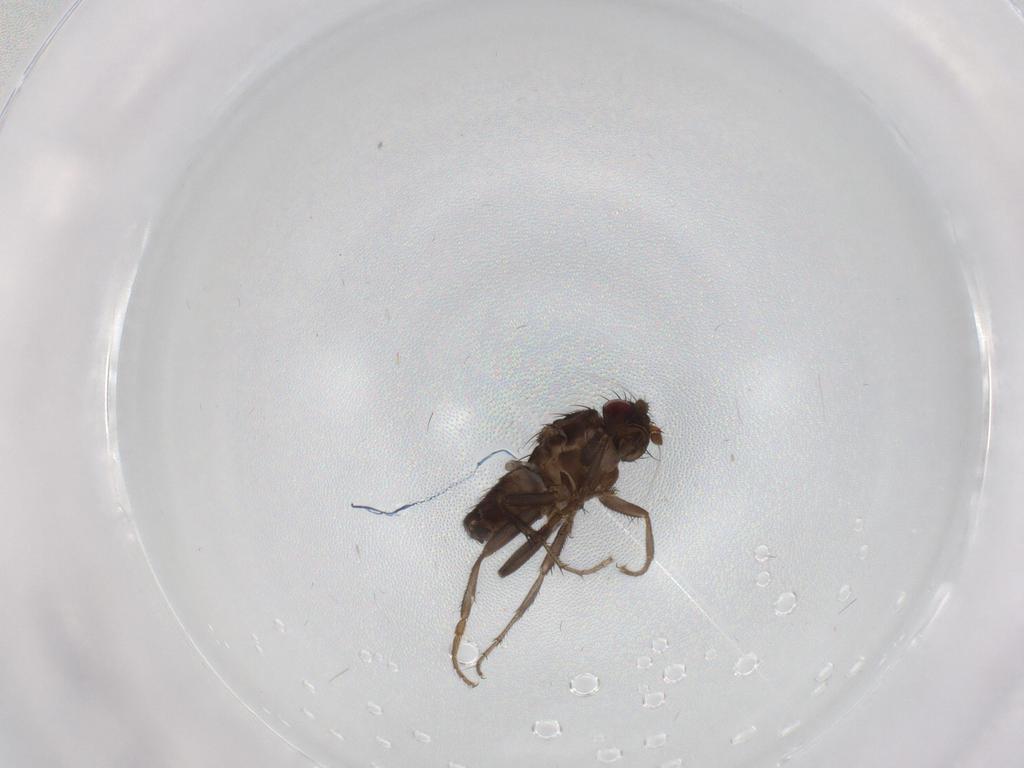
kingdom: Animalia
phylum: Arthropoda
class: Insecta
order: Diptera
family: Sphaeroceridae
